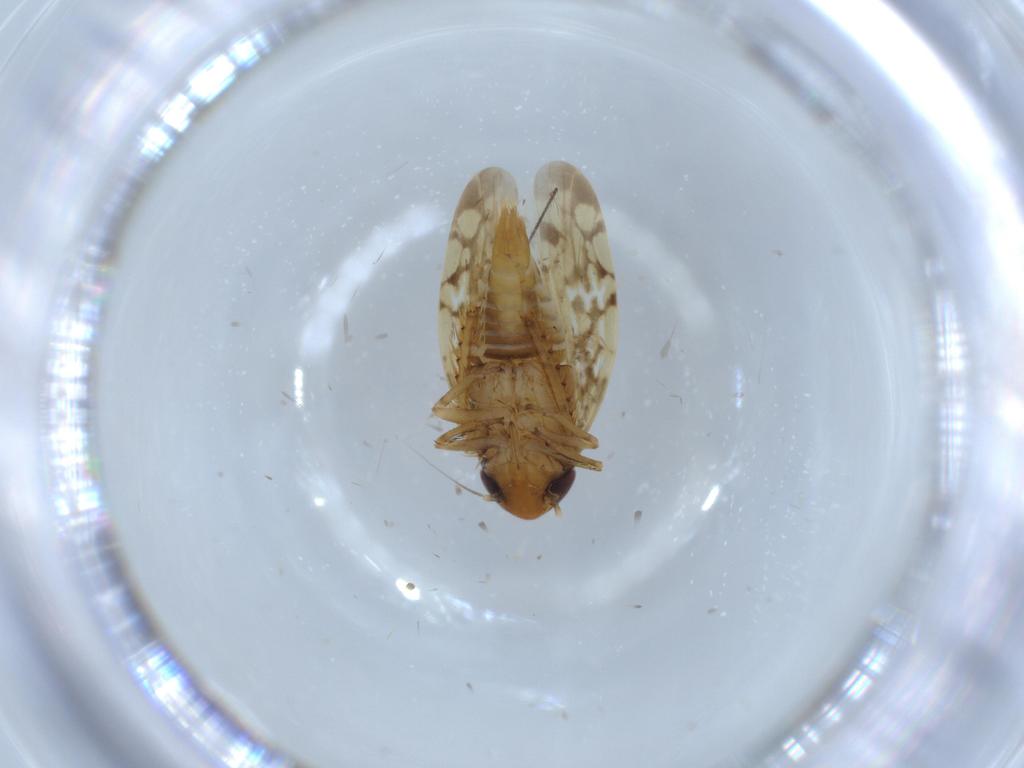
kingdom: Animalia
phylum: Arthropoda
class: Insecta
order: Hemiptera
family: Cicadellidae
